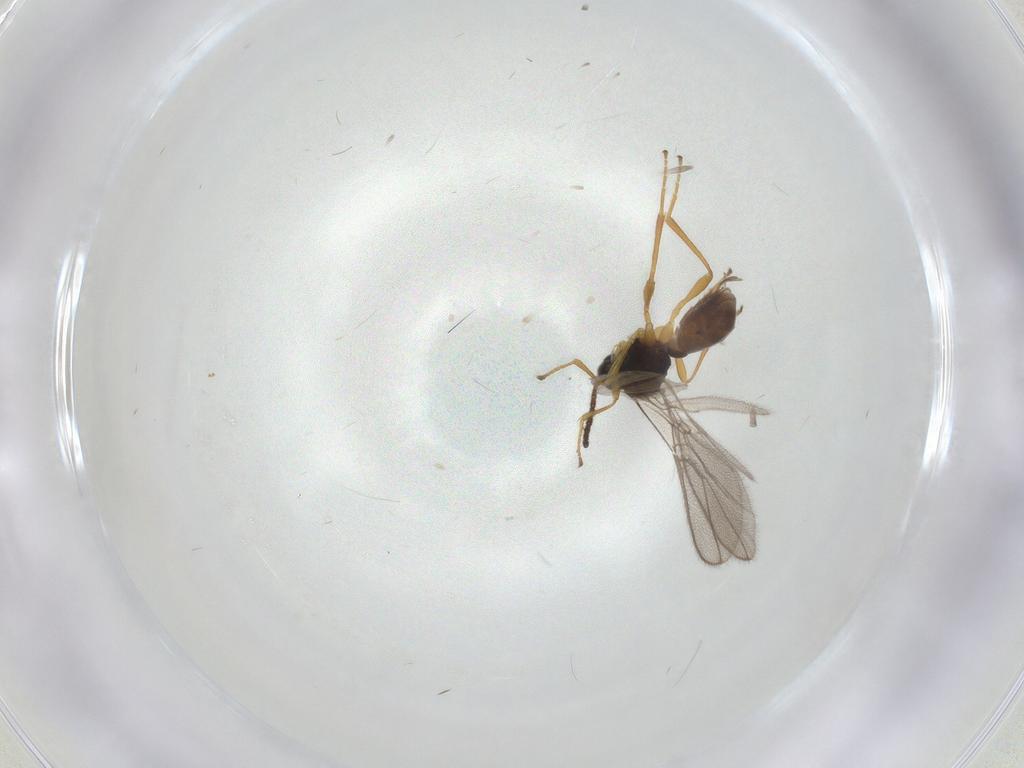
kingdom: Animalia
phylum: Arthropoda
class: Insecta
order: Hymenoptera
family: Braconidae
